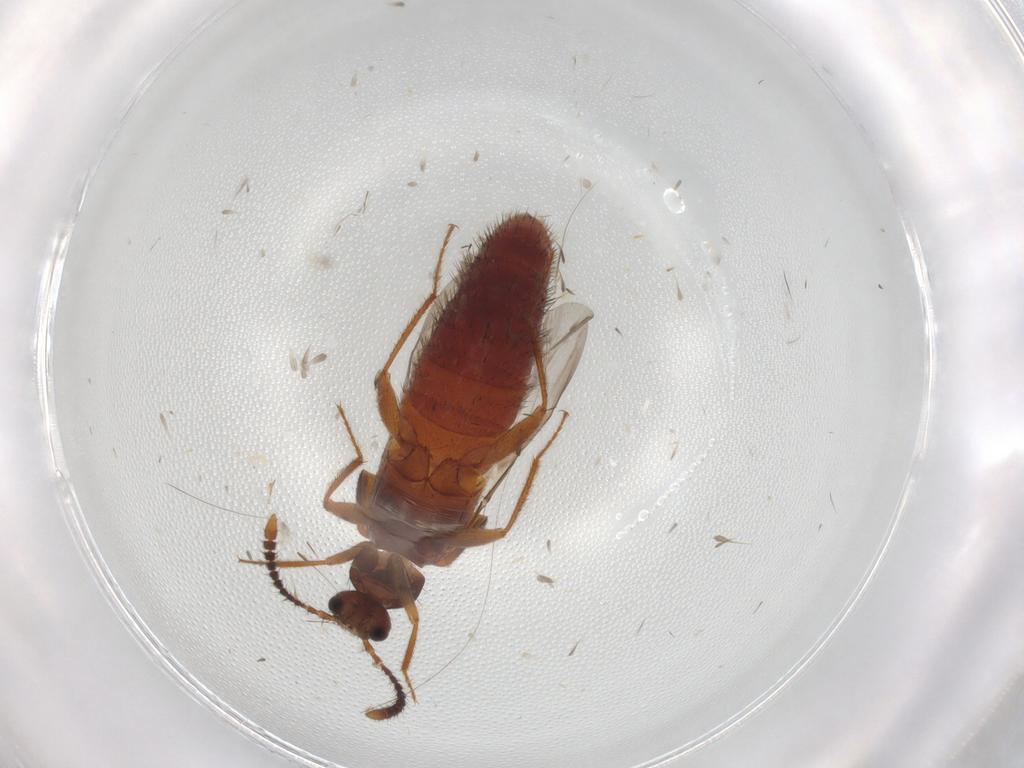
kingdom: Animalia
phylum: Arthropoda
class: Insecta
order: Coleoptera
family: Staphylinidae
